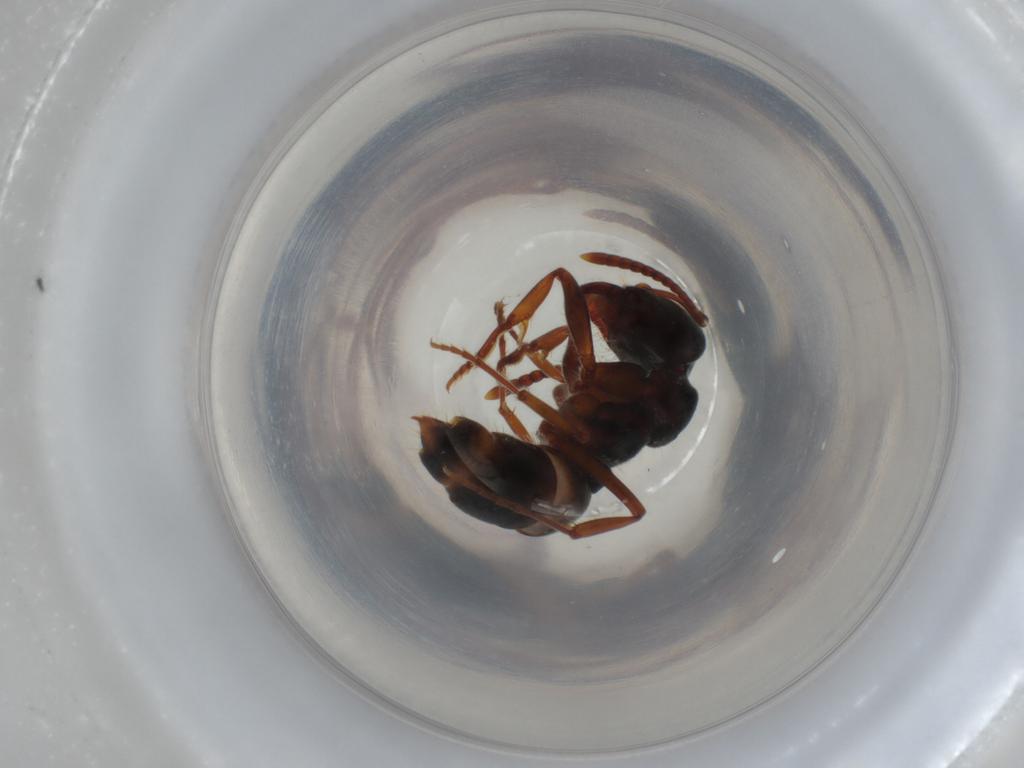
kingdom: Animalia
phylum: Arthropoda
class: Insecta
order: Hymenoptera
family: Formicidae
